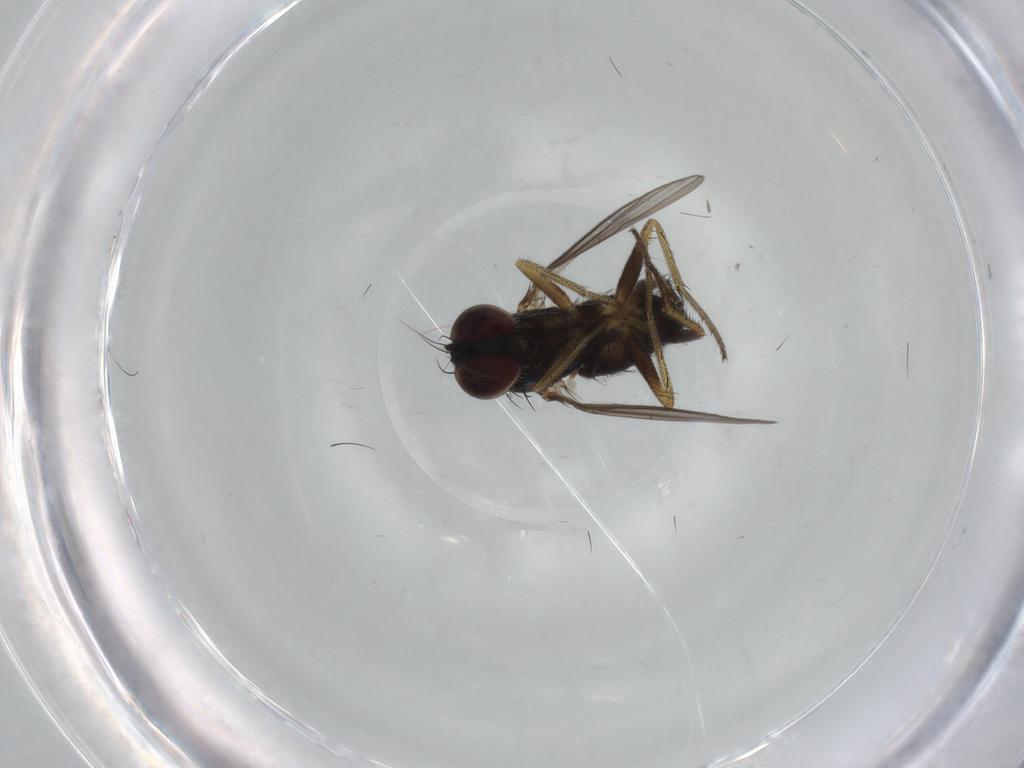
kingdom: Animalia
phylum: Arthropoda
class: Insecta
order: Diptera
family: Dolichopodidae
